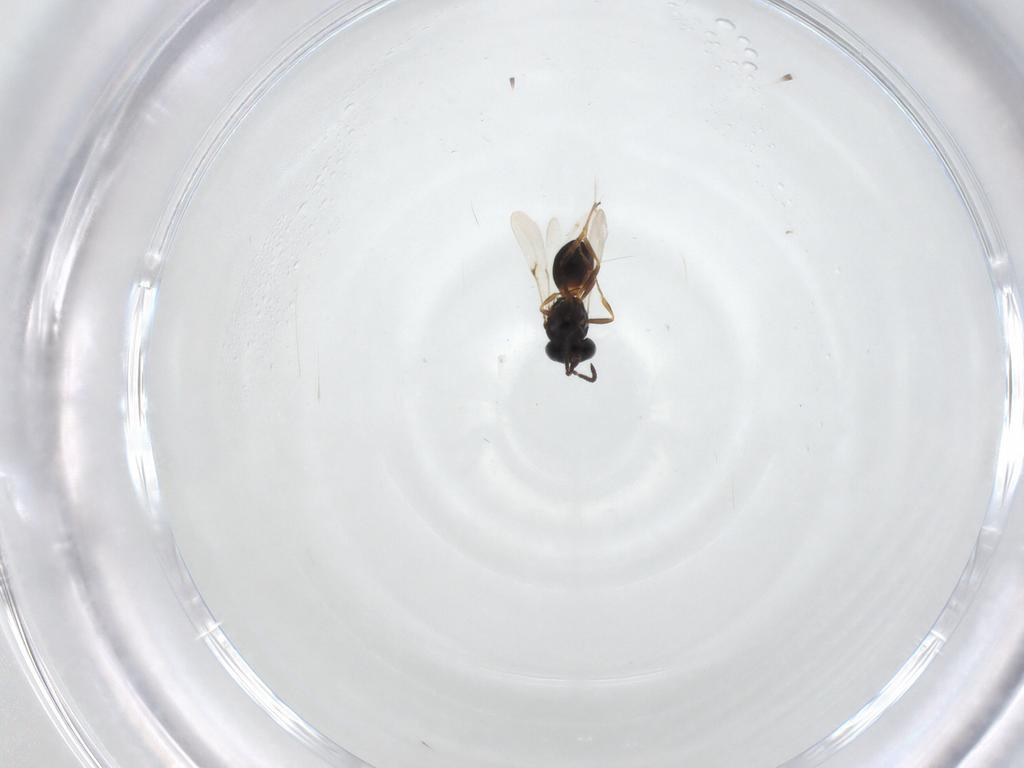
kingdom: Animalia
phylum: Arthropoda
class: Arachnida
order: Araneae
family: Pholcidae
